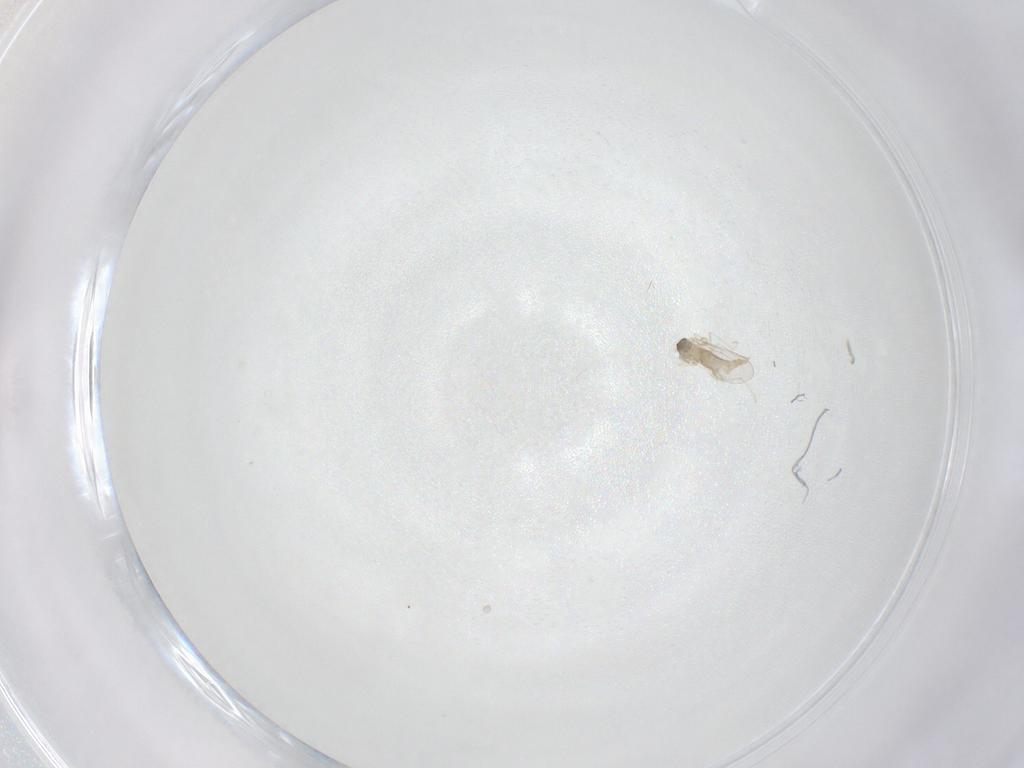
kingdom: Animalia
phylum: Arthropoda
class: Insecta
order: Diptera
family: Cecidomyiidae
